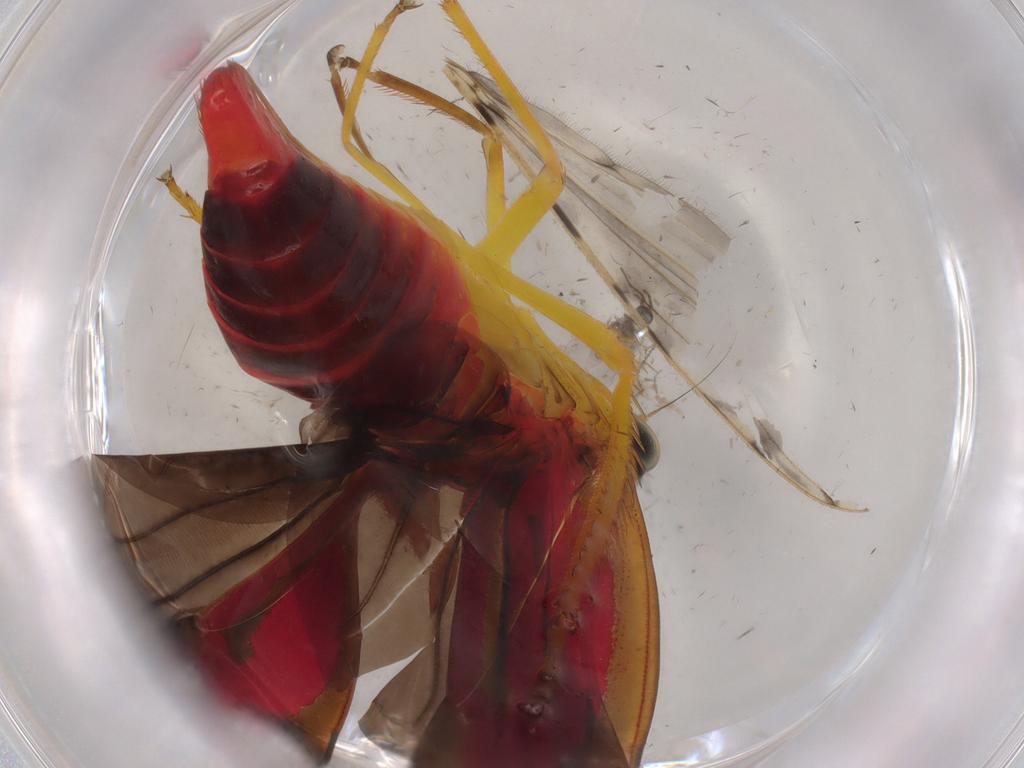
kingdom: Animalia
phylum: Arthropoda
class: Insecta
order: Hemiptera
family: Cicadellidae
